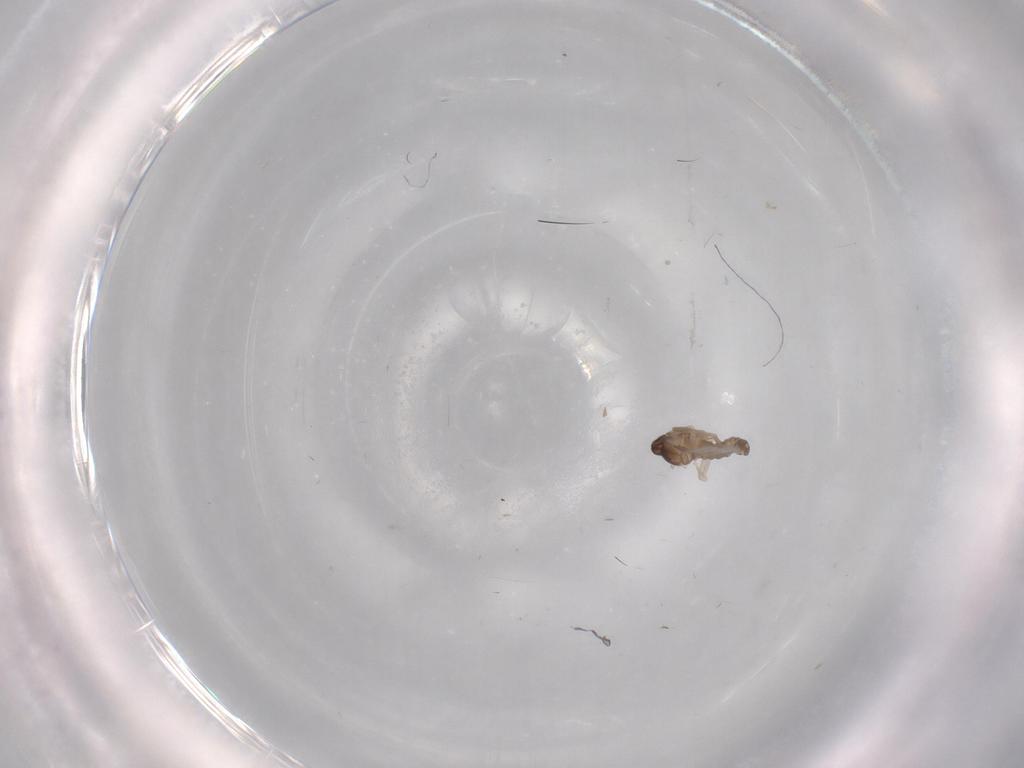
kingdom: Animalia
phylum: Arthropoda
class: Insecta
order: Diptera
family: Cecidomyiidae
